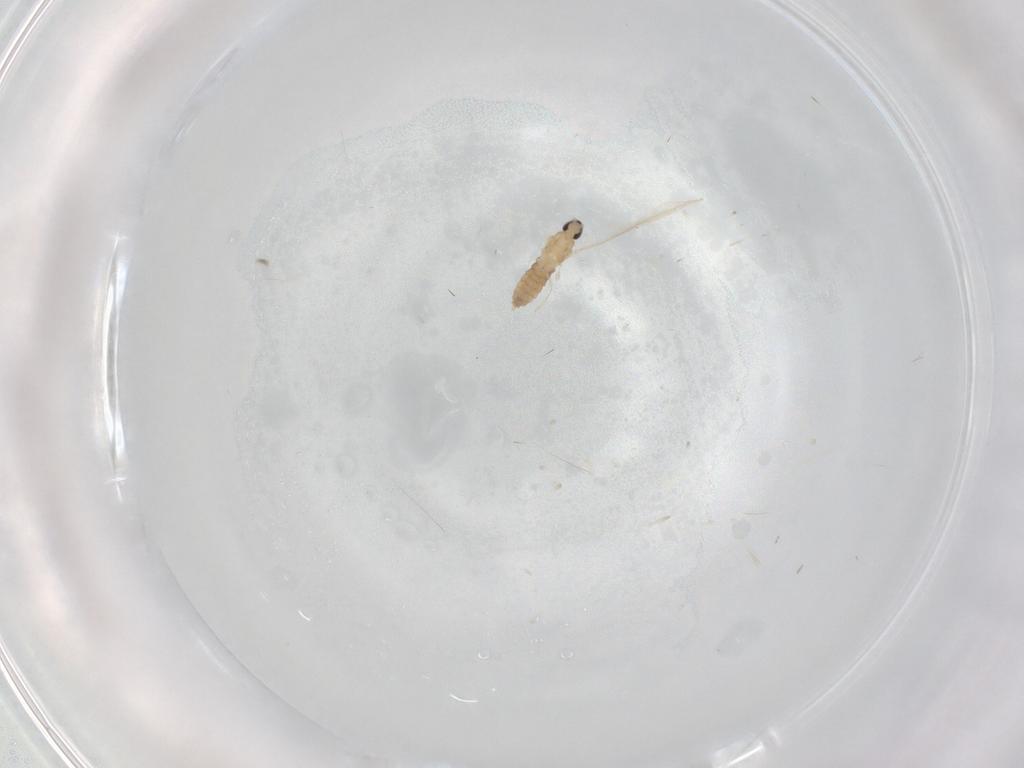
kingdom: Animalia
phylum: Arthropoda
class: Insecta
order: Diptera
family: Cecidomyiidae
